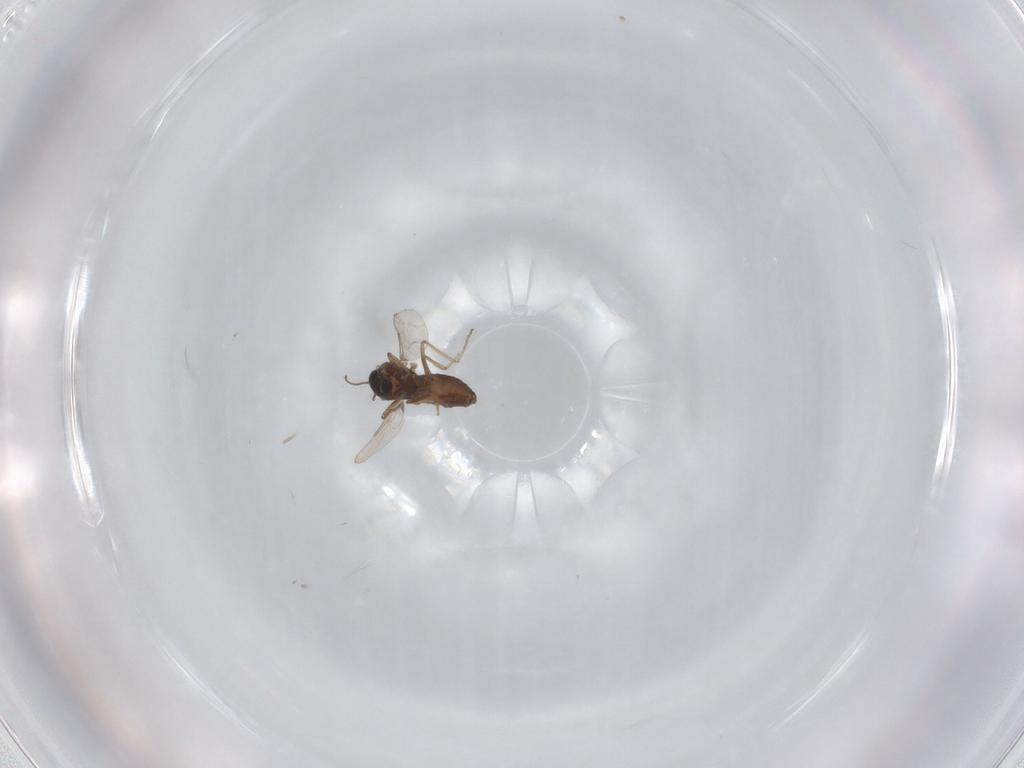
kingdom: Animalia
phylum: Arthropoda
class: Insecta
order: Diptera
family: Ceratopogonidae
